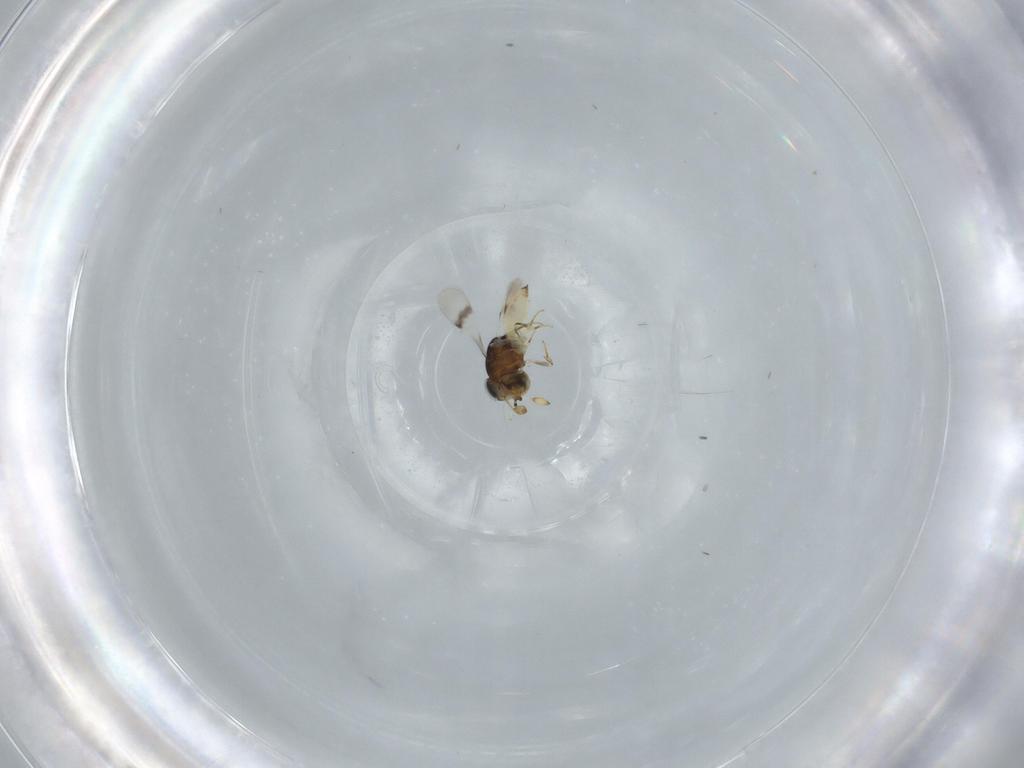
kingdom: Animalia
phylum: Arthropoda
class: Insecta
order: Hymenoptera
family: Scelionidae
